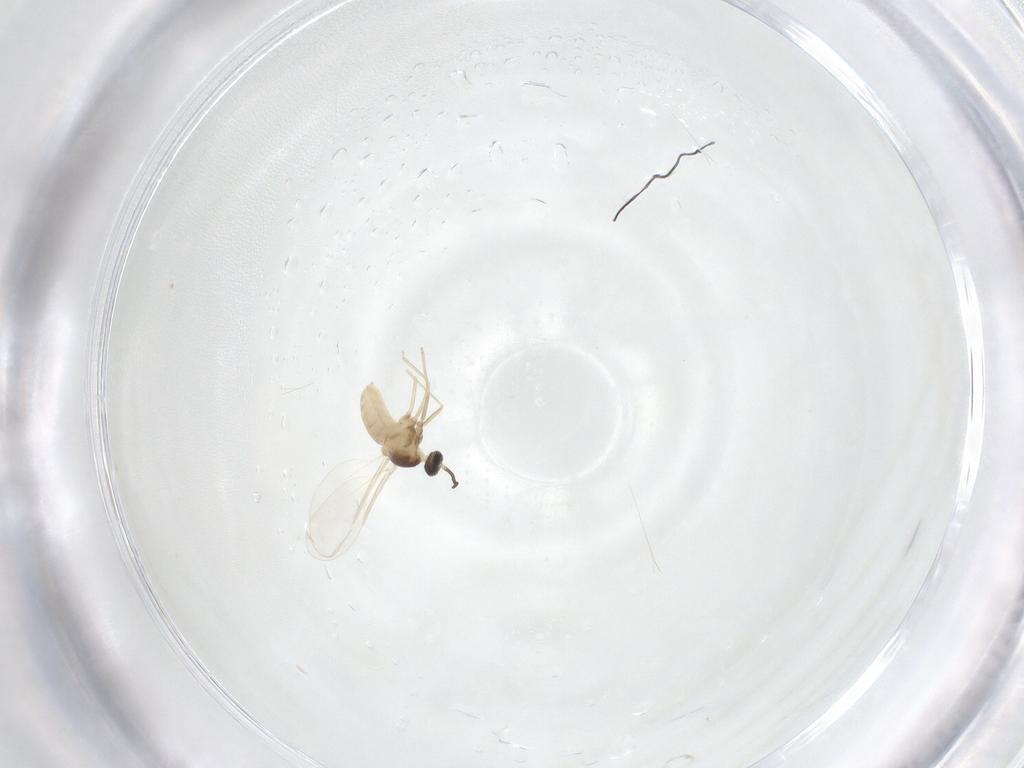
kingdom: Animalia
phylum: Arthropoda
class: Insecta
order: Diptera
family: Cecidomyiidae
